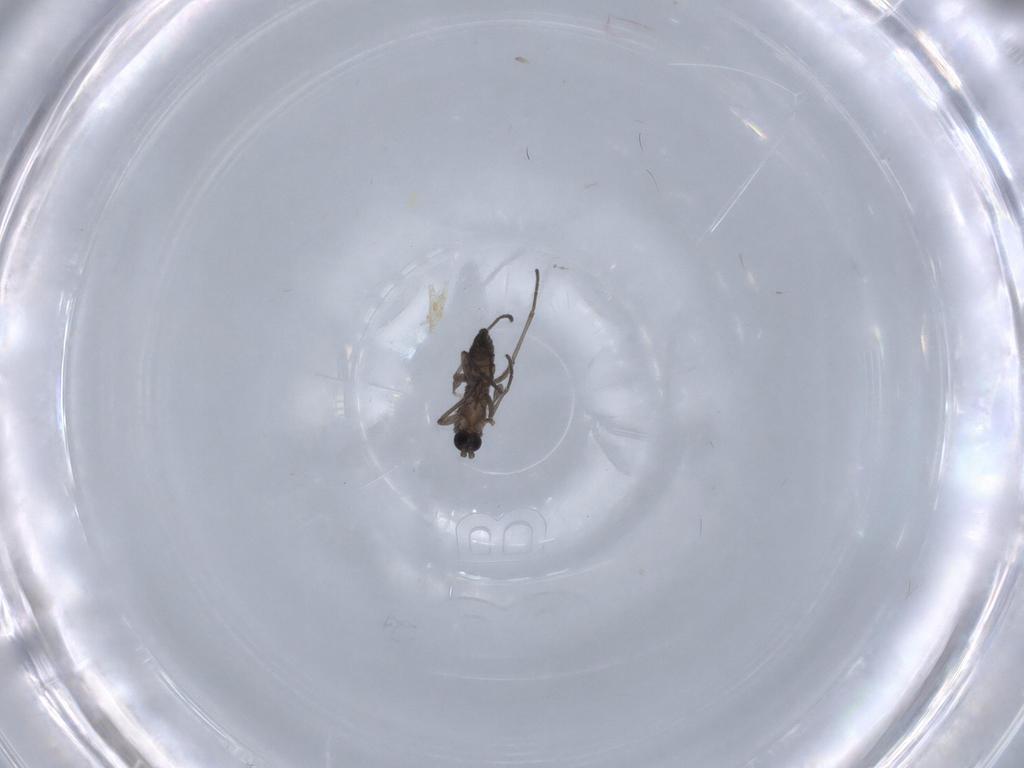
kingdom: Animalia
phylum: Arthropoda
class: Insecta
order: Diptera
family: Cecidomyiidae
